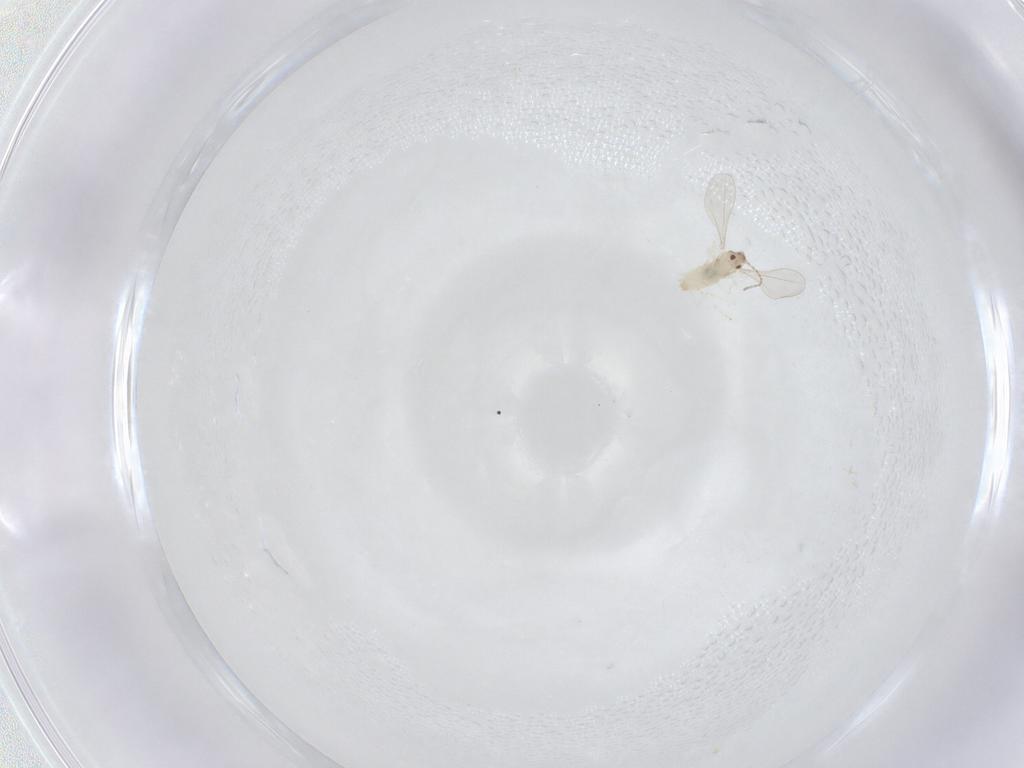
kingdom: Animalia
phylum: Arthropoda
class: Insecta
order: Diptera
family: Cecidomyiidae
